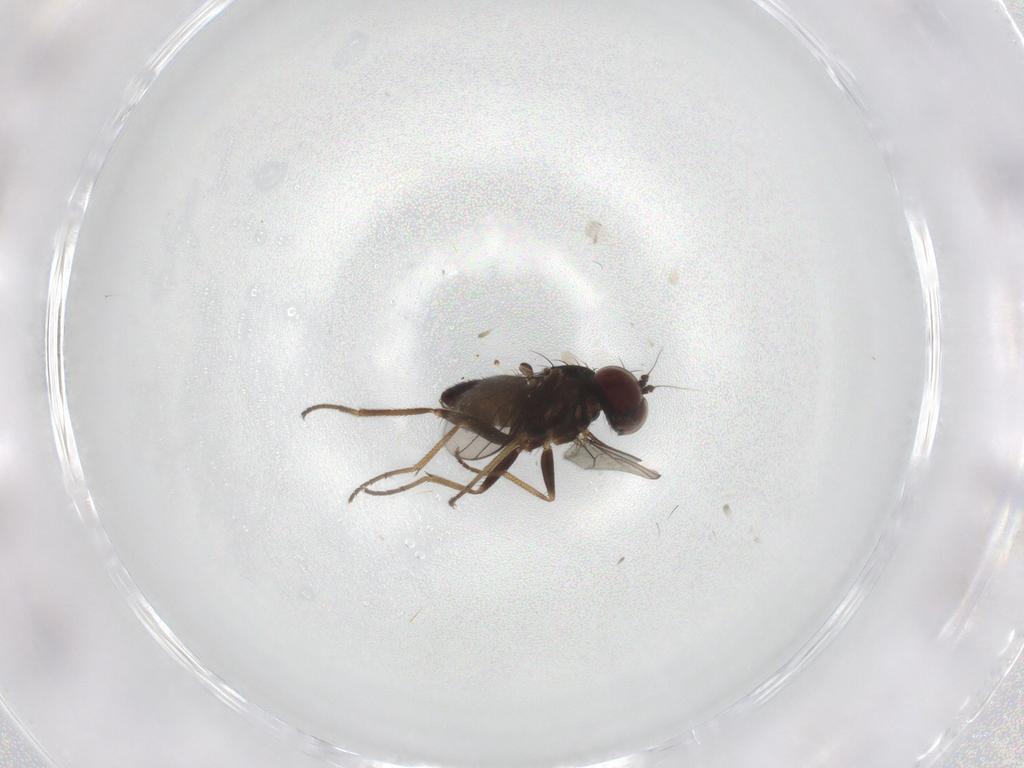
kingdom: Animalia
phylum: Arthropoda
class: Insecta
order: Diptera
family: Dolichopodidae
